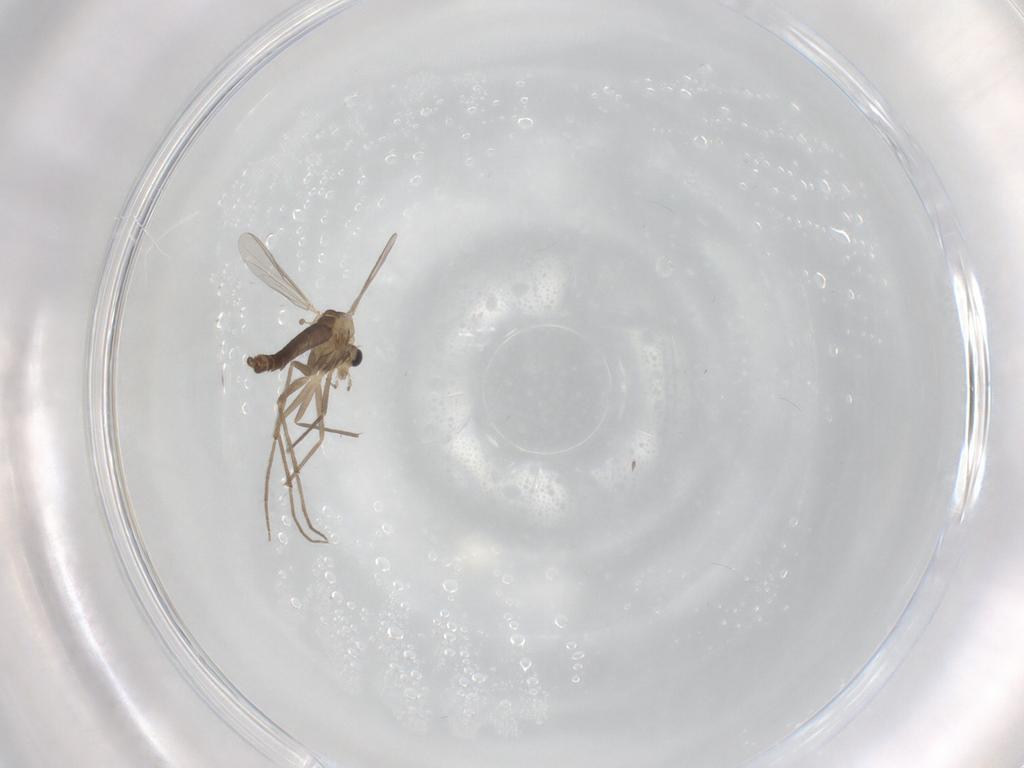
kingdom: Animalia
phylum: Arthropoda
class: Insecta
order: Diptera
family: Chironomidae
